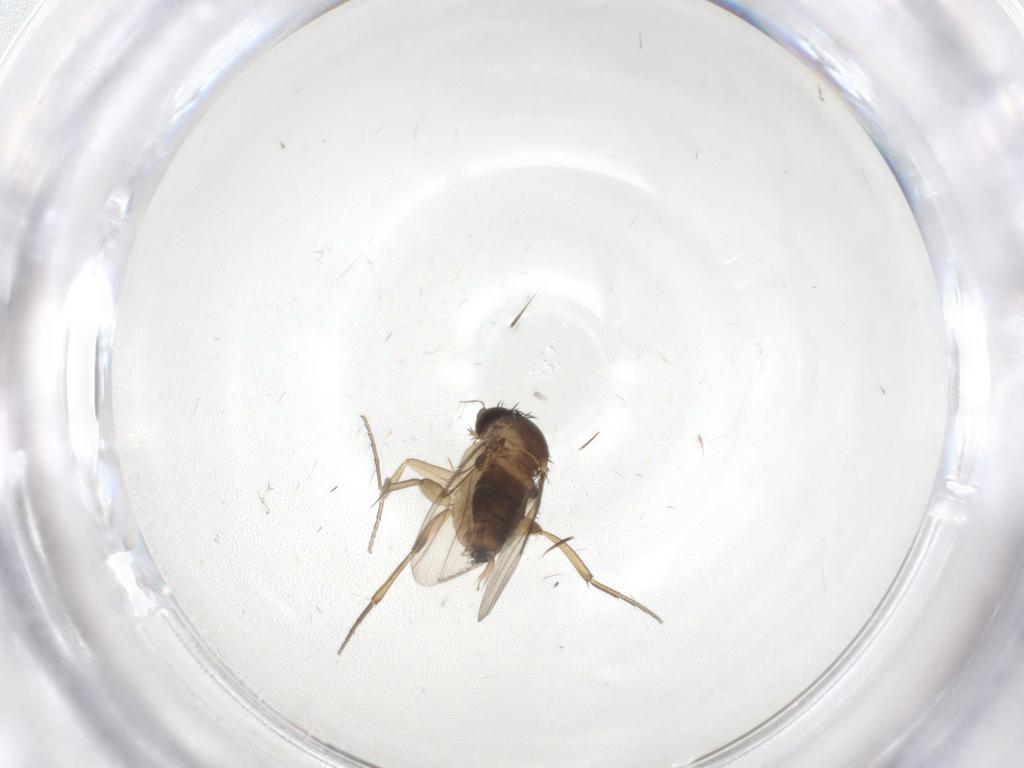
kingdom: Animalia
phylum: Arthropoda
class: Insecta
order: Diptera
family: Phoridae
